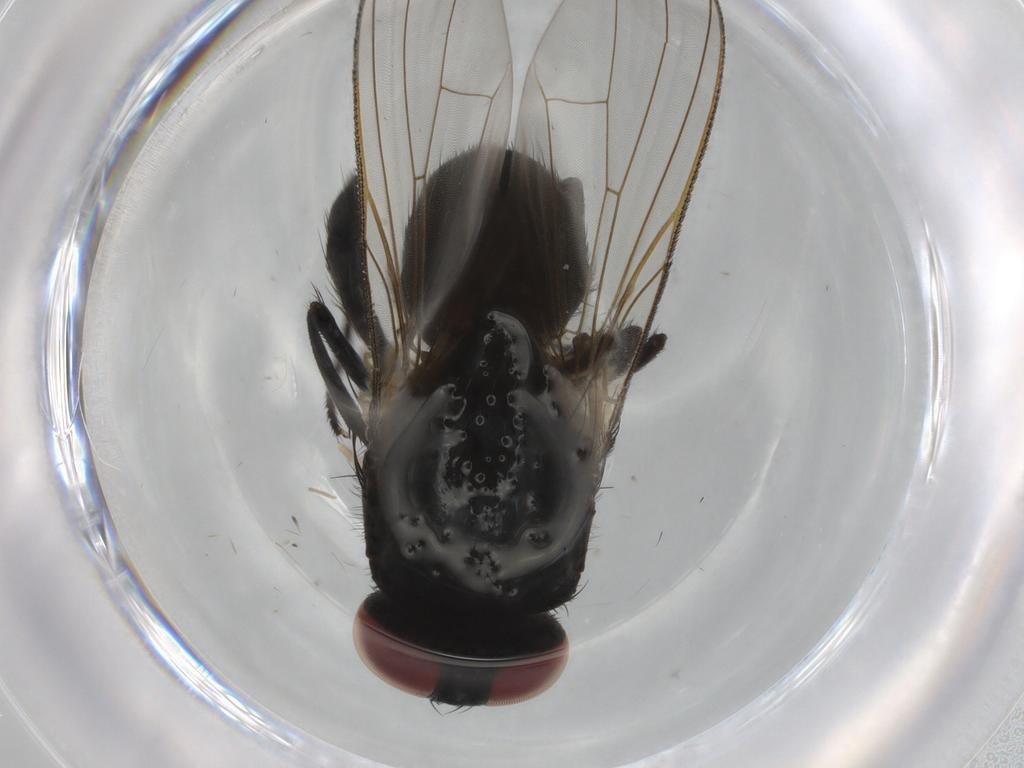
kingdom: Animalia
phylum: Arthropoda
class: Insecta
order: Diptera
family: Muscidae
